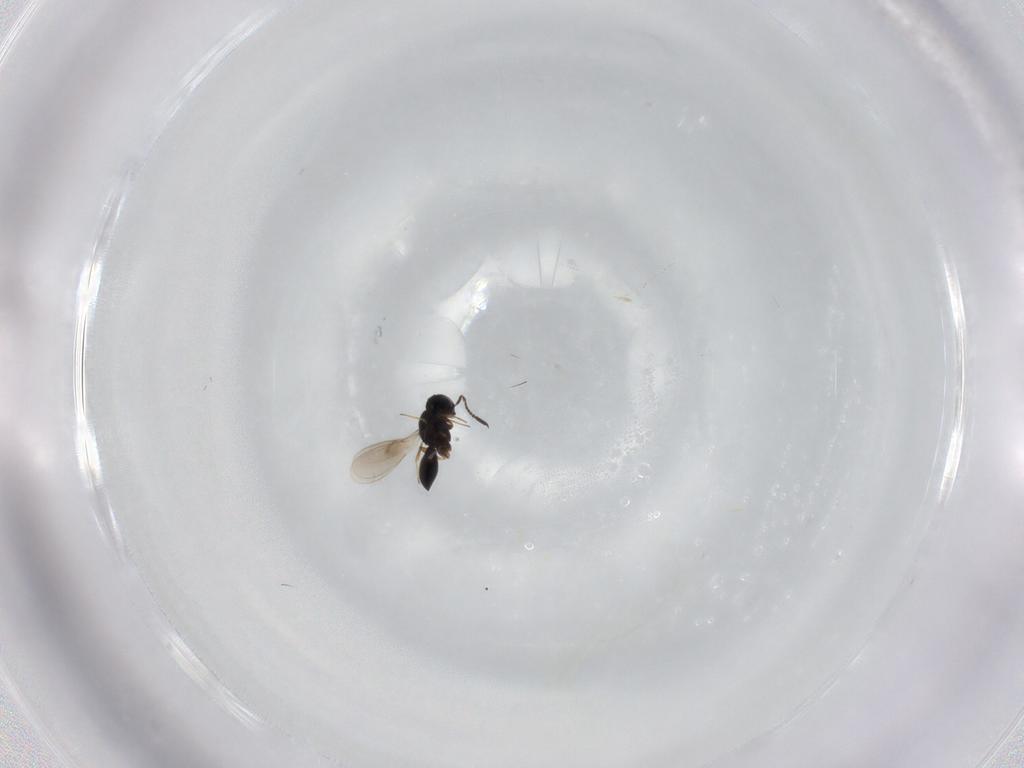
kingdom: Animalia
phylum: Arthropoda
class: Insecta
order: Hymenoptera
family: Scelionidae
